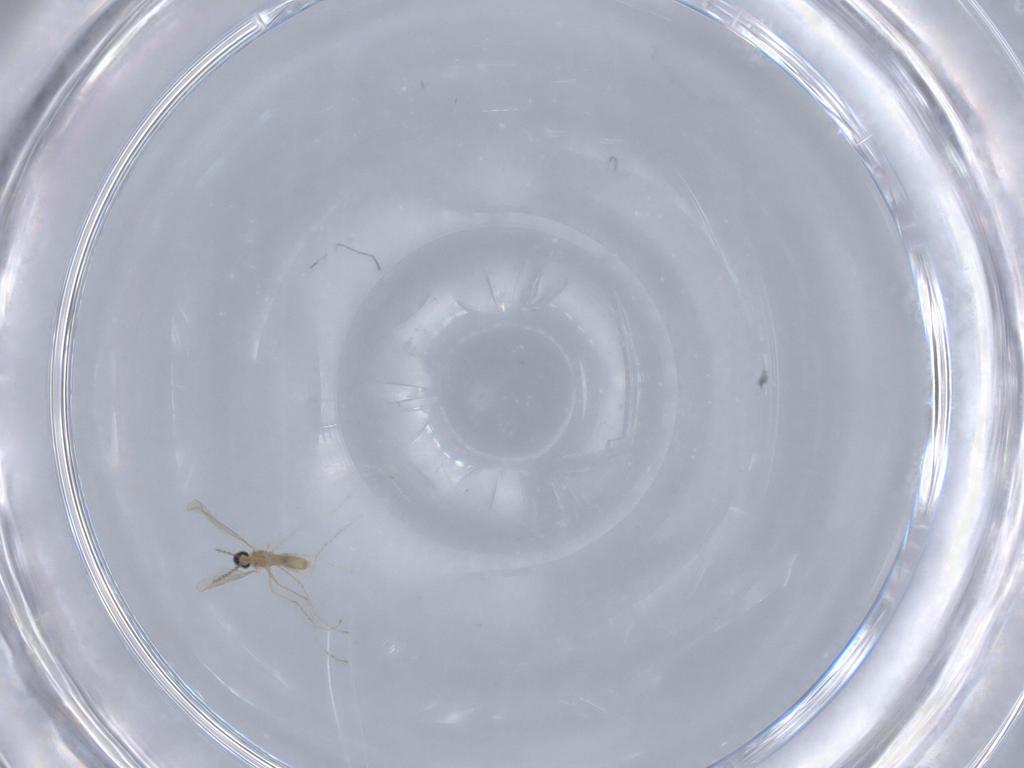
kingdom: Animalia
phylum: Arthropoda
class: Insecta
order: Diptera
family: Cecidomyiidae
